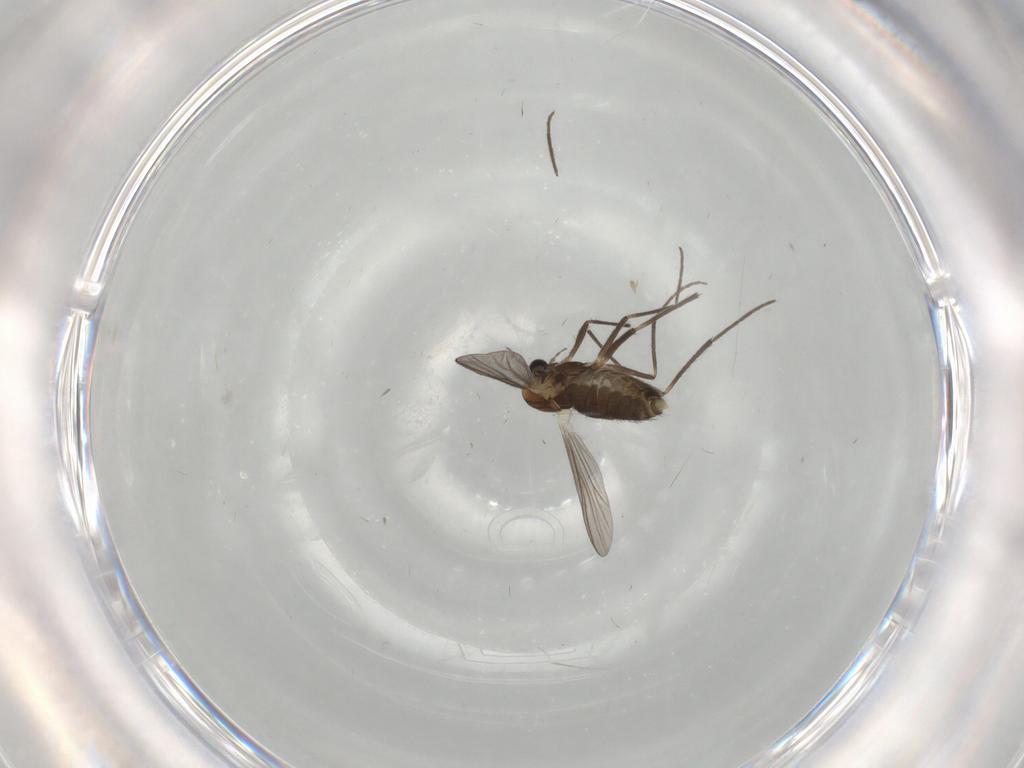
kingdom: Animalia
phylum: Arthropoda
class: Insecta
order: Diptera
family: Chironomidae
